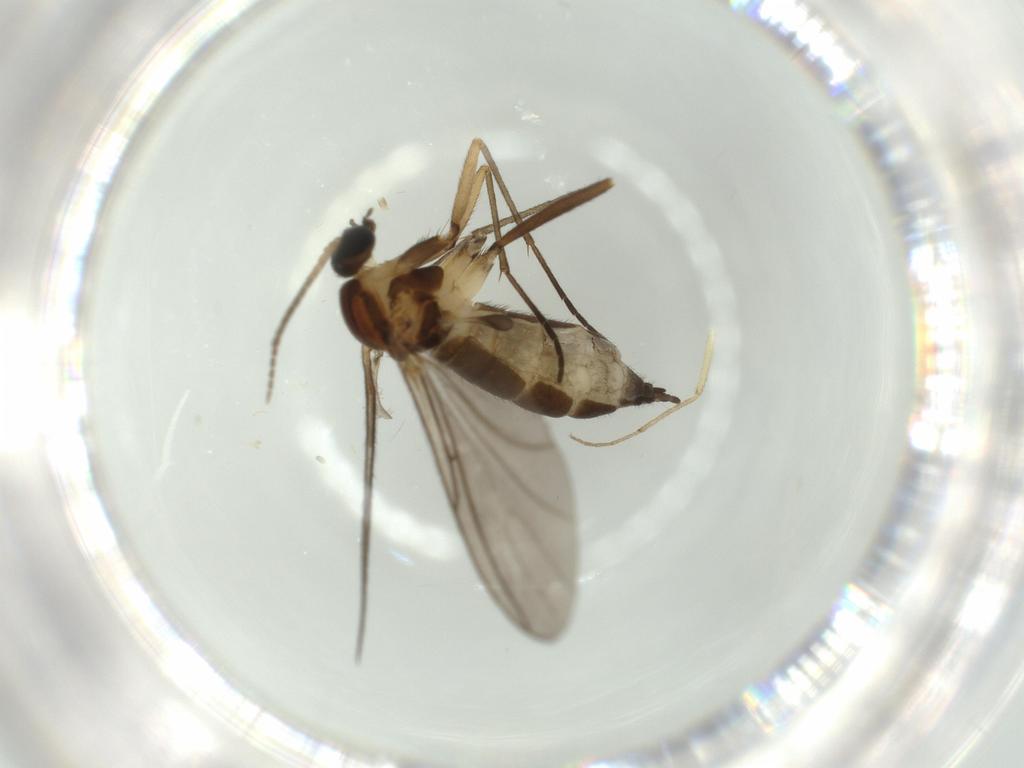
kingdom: Animalia
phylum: Arthropoda
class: Insecta
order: Diptera
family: Sciaridae
